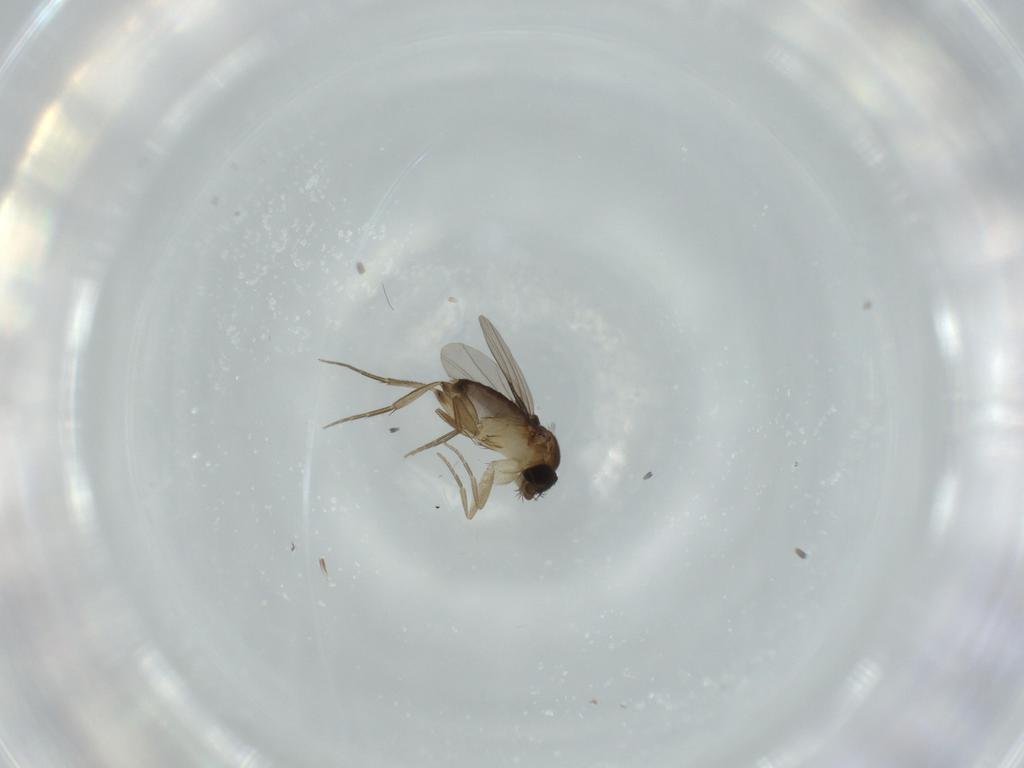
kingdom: Animalia
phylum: Arthropoda
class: Insecta
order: Diptera
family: Phoridae
